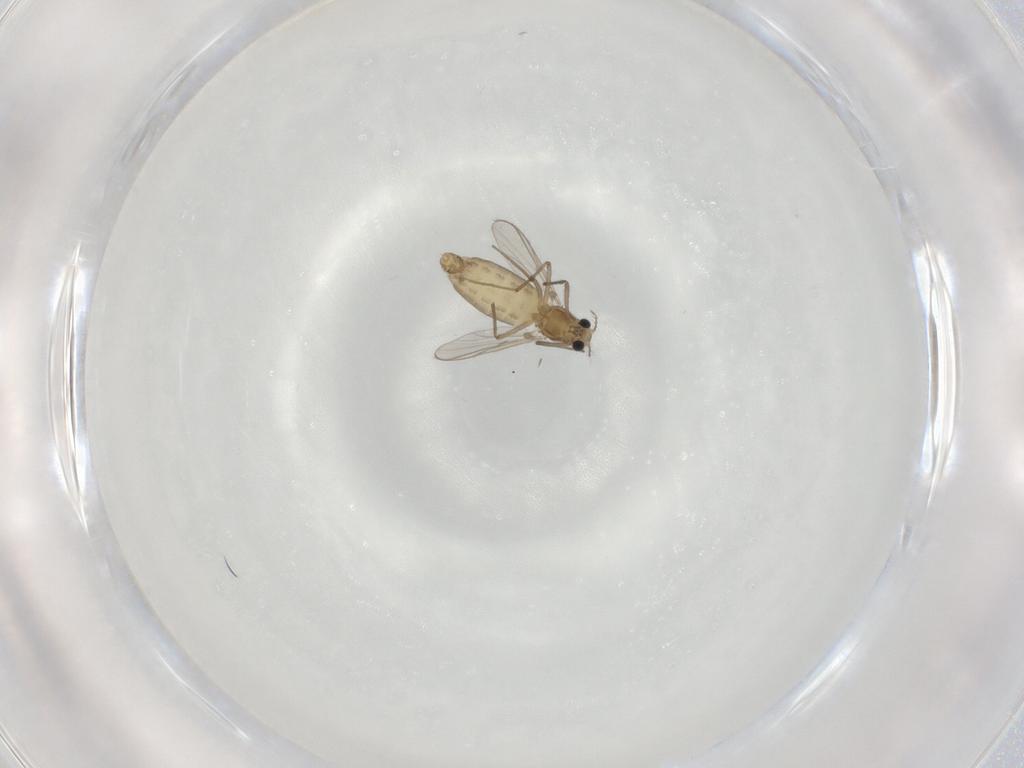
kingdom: Animalia
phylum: Arthropoda
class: Insecta
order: Diptera
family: Chironomidae
